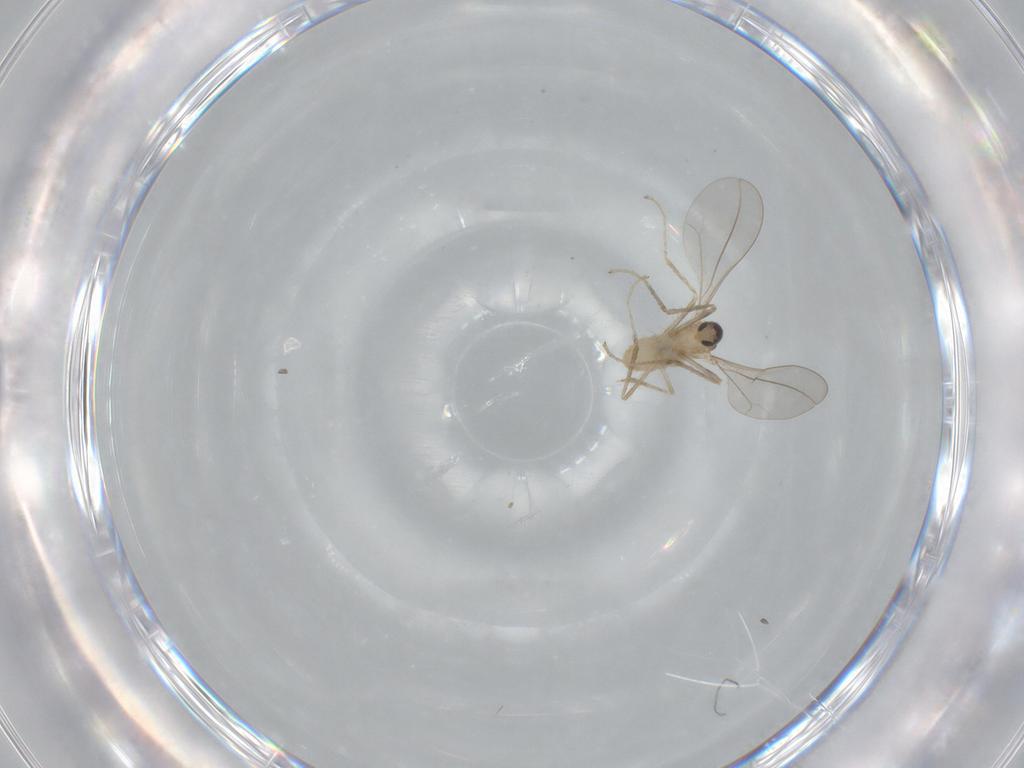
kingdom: Animalia
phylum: Arthropoda
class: Insecta
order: Diptera
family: Cecidomyiidae
